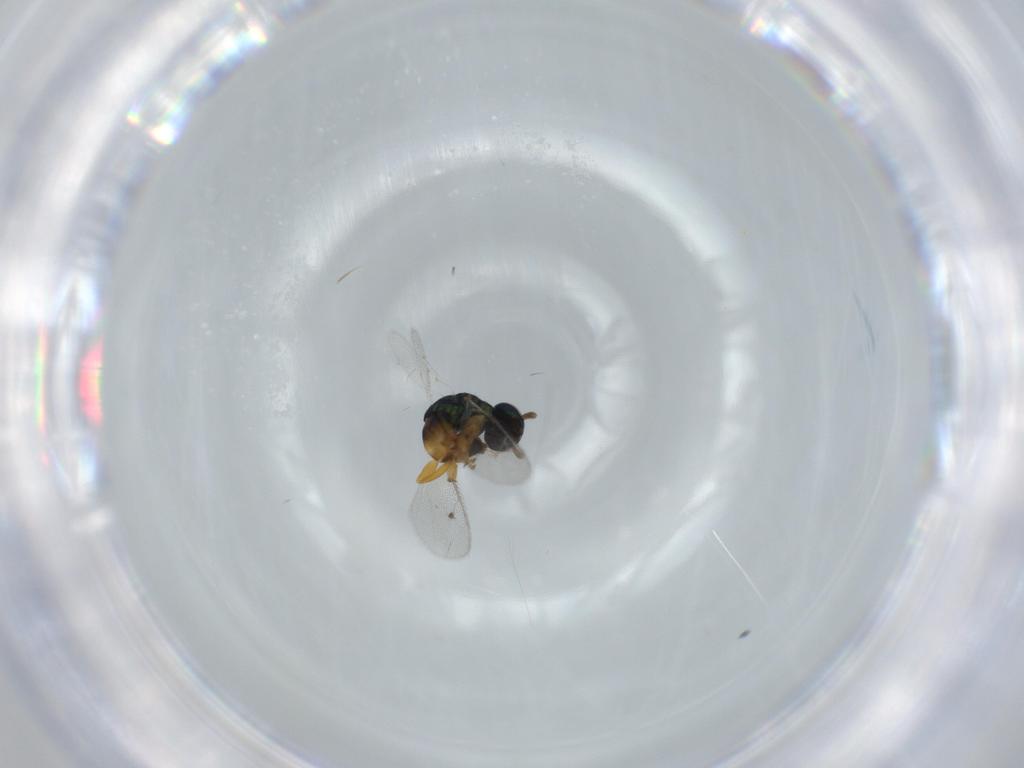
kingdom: Animalia
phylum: Arthropoda
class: Insecta
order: Hymenoptera
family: Pteromalidae
